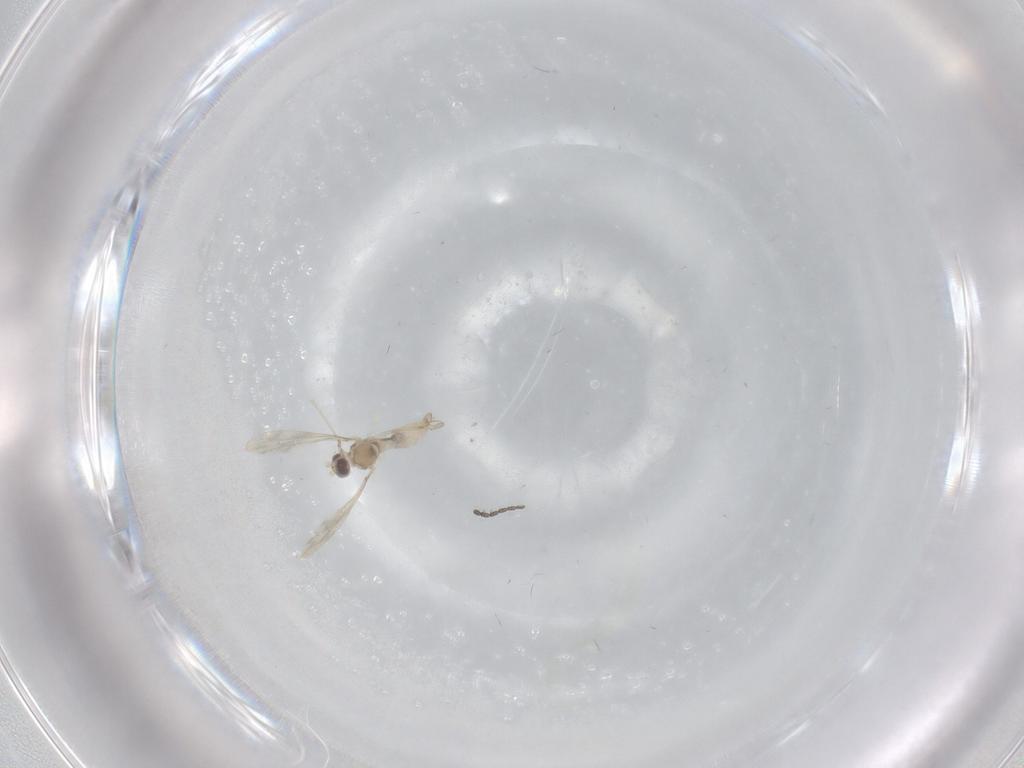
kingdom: Animalia
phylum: Arthropoda
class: Insecta
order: Diptera
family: Cecidomyiidae
